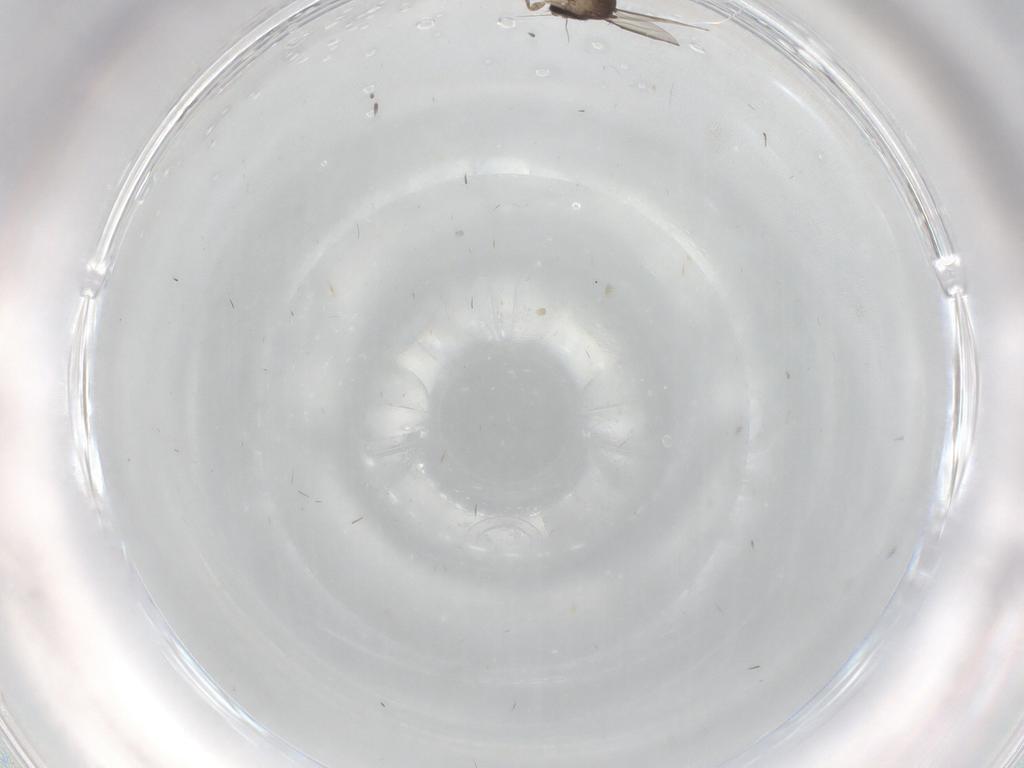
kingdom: Animalia
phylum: Arthropoda
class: Insecta
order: Diptera
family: Phoridae
